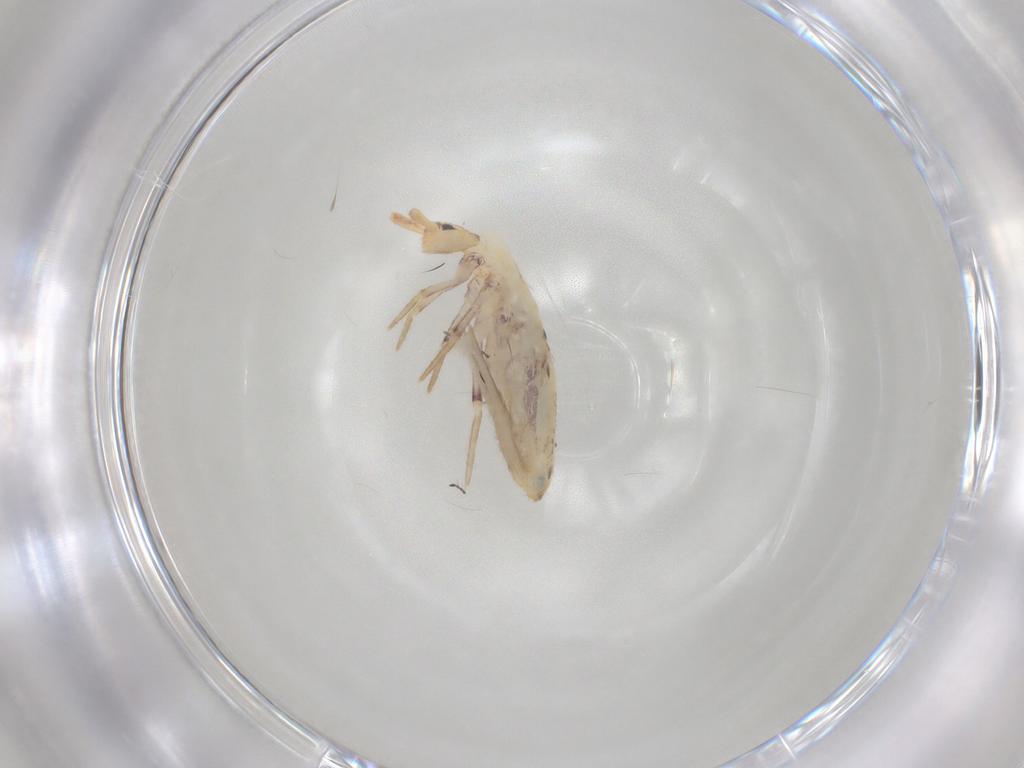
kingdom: Animalia
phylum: Arthropoda
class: Collembola
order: Poduromorpha
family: Hypogastruridae
